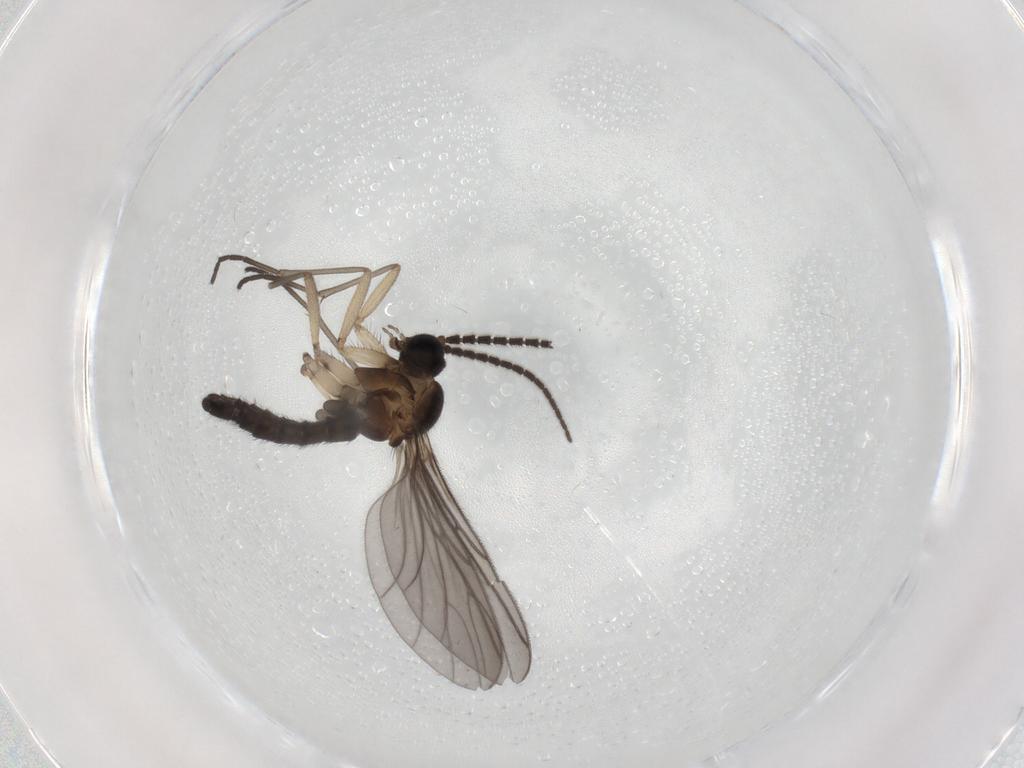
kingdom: Animalia
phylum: Arthropoda
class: Insecta
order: Diptera
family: Sciaridae
